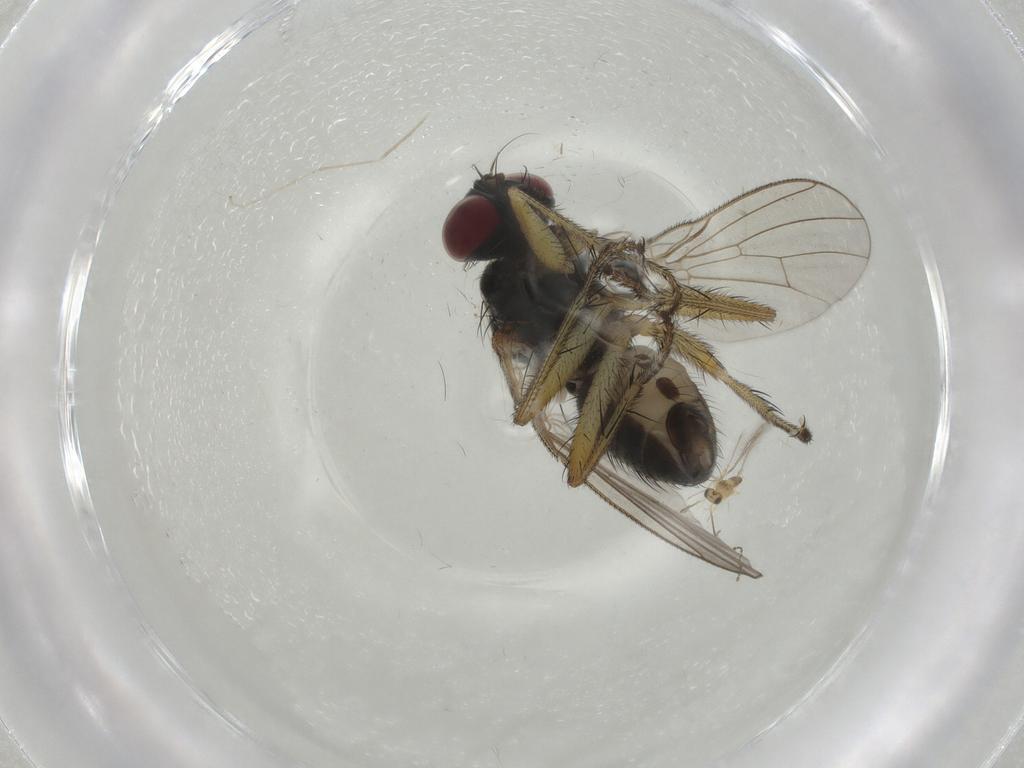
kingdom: Animalia
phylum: Arthropoda
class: Insecta
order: Diptera
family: Muscidae
